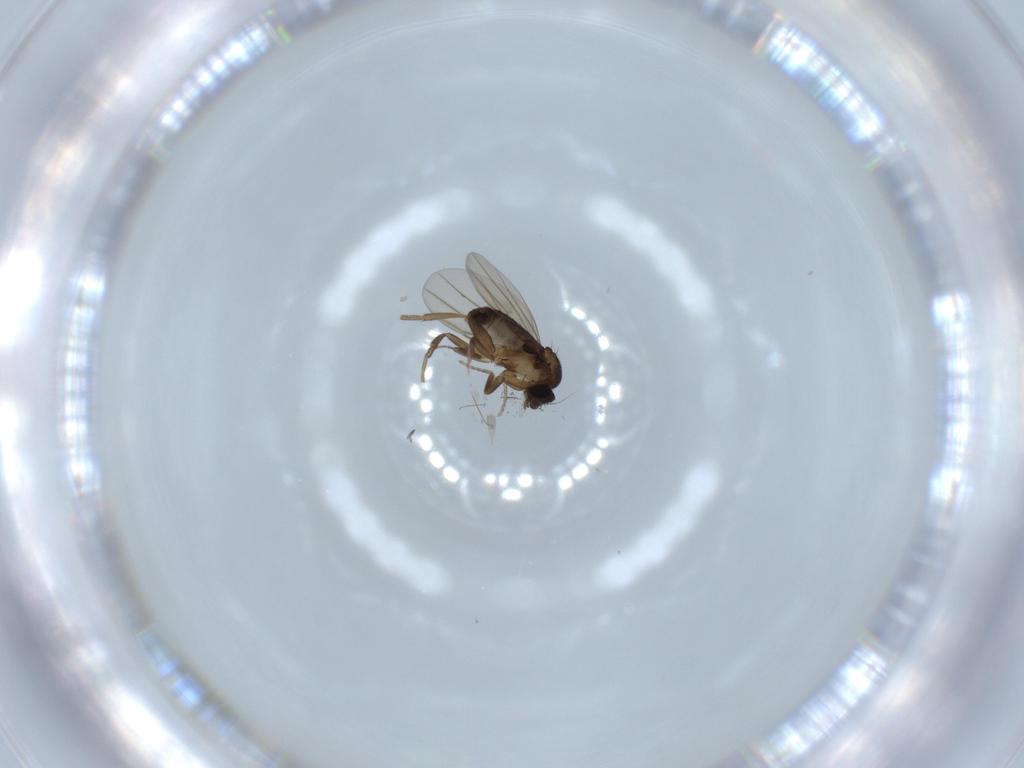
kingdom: Animalia
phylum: Arthropoda
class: Insecta
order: Diptera
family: Phoridae
